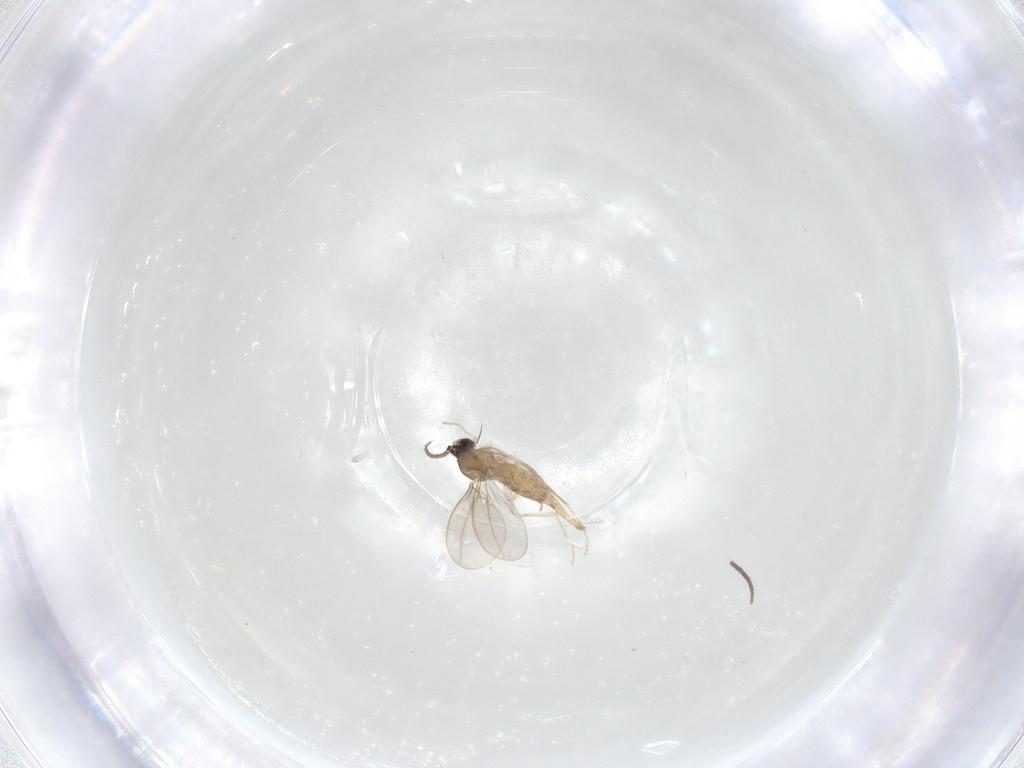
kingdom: Animalia
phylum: Arthropoda
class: Insecta
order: Diptera
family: Cecidomyiidae
